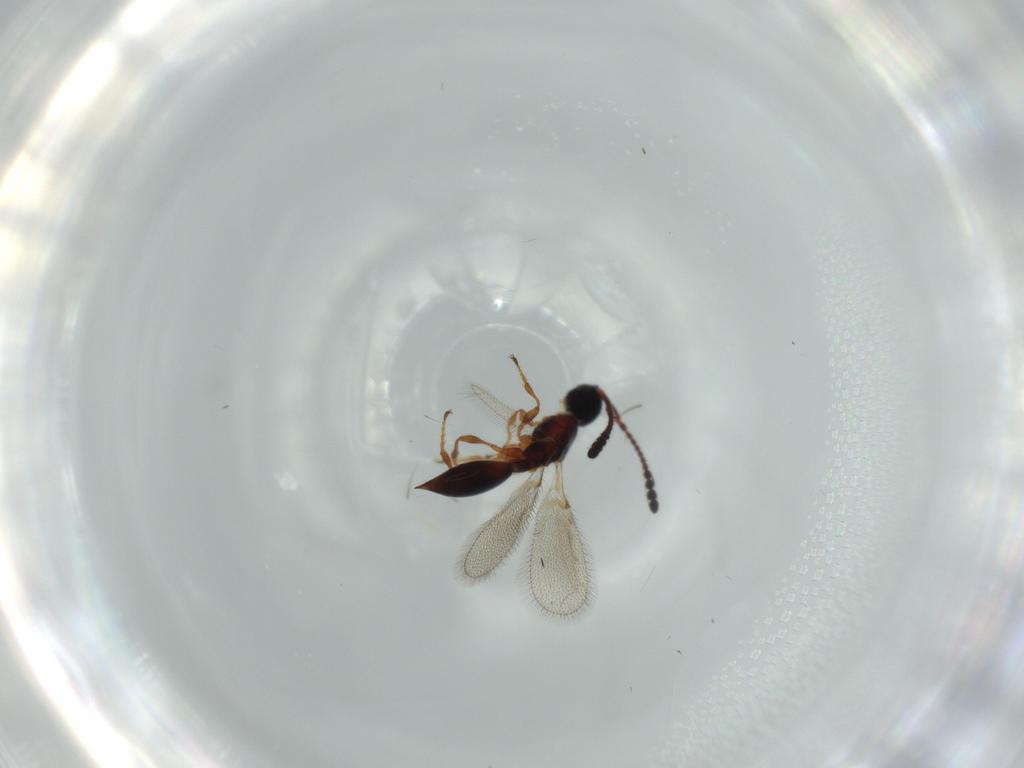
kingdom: Animalia
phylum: Arthropoda
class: Insecta
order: Hymenoptera
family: Diapriidae
